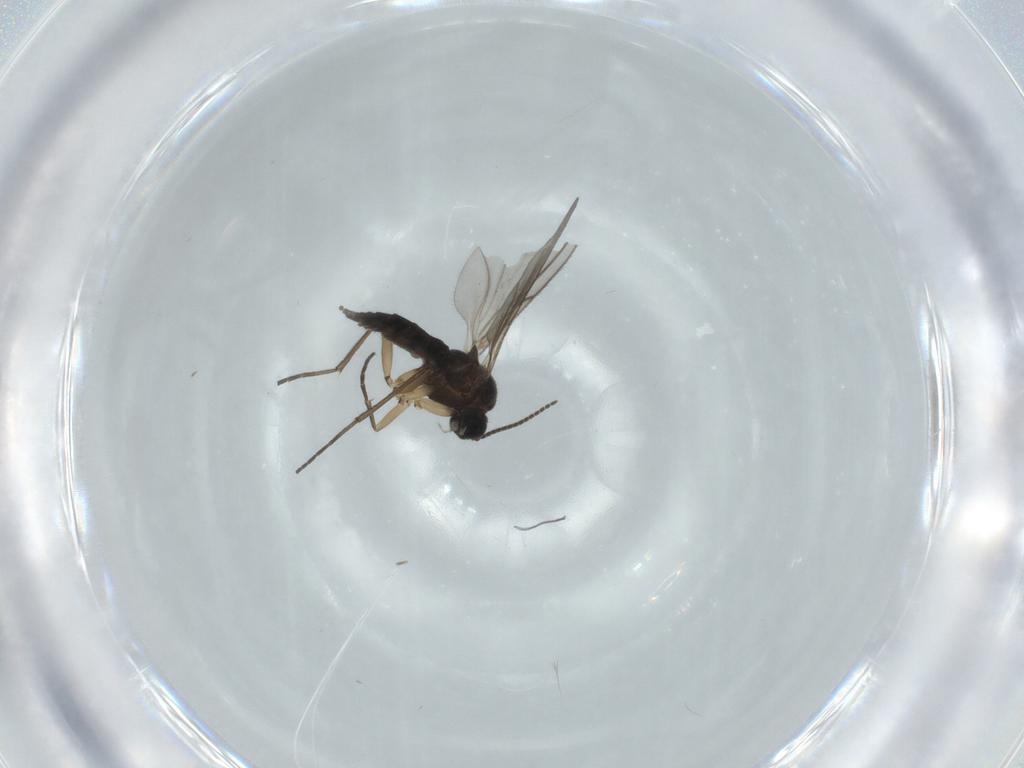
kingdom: Animalia
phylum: Arthropoda
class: Insecta
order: Diptera
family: Sciaridae
